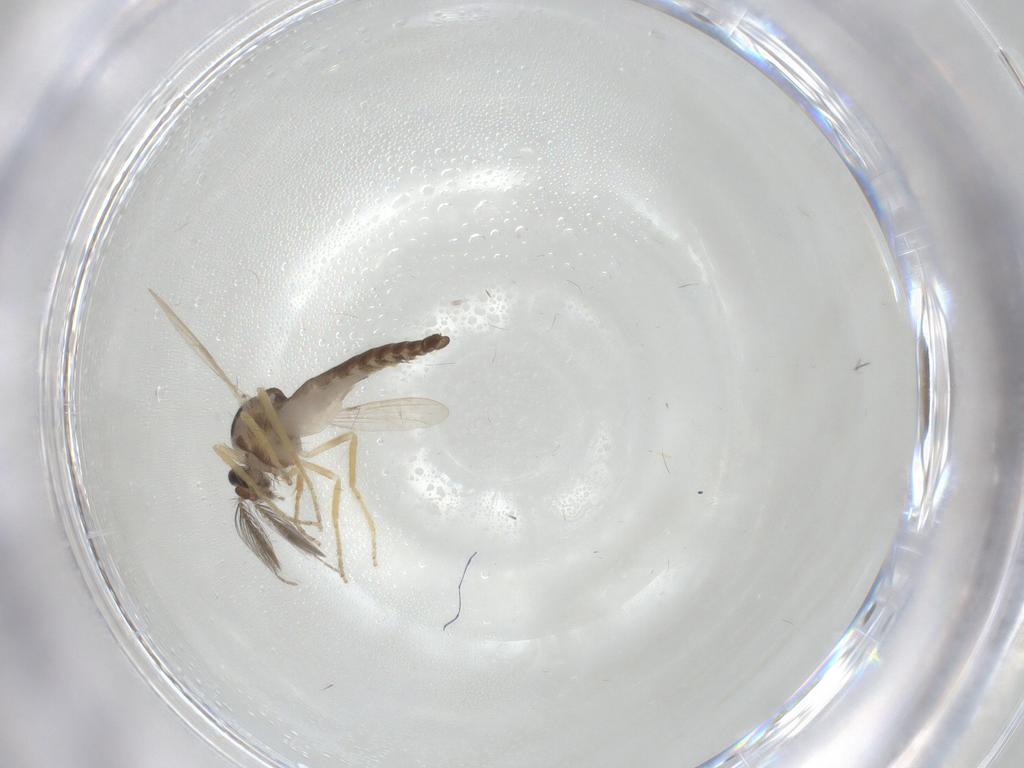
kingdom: Animalia
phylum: Arthropoda
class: Insecta
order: Diptera
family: Ceratopogonidae
